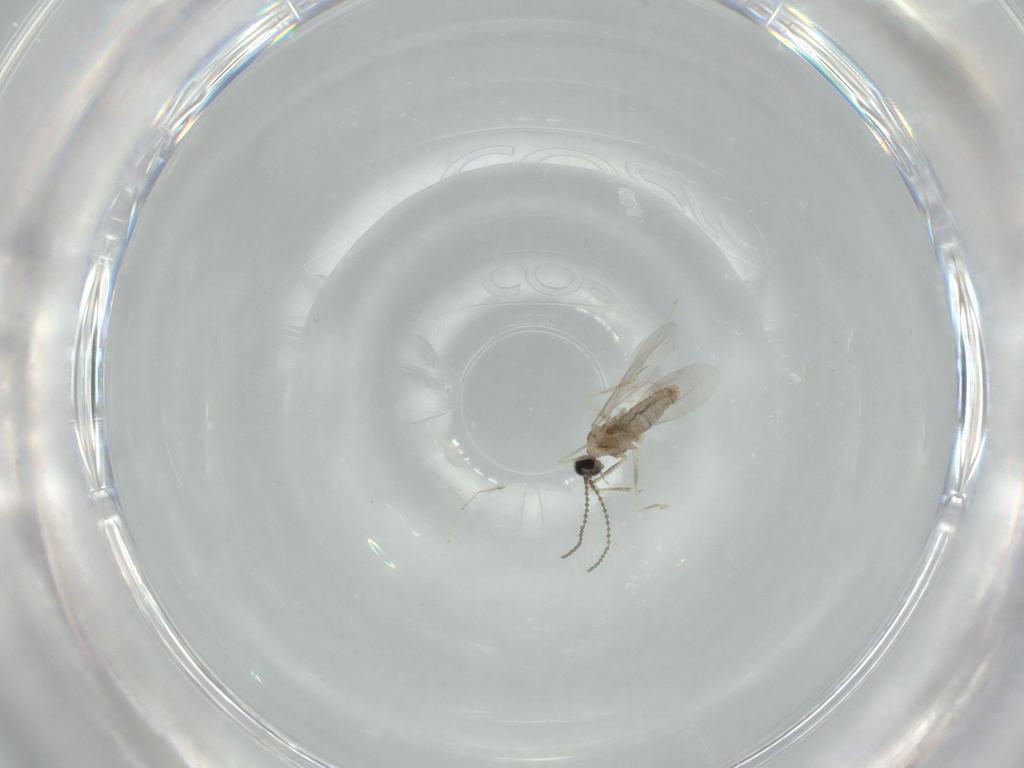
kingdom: Animalia
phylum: Arthropoda
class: Insecta
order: Diptera
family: Cecidomyiidae
